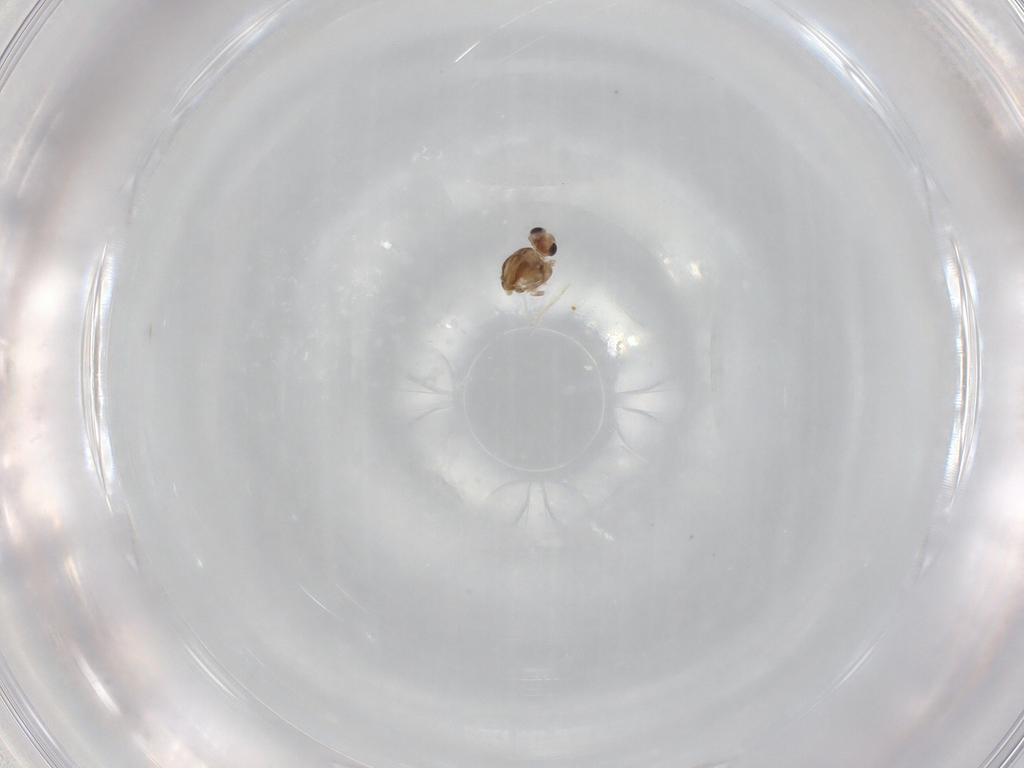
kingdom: Animalia
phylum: Arthropoda
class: Insecta
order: Diptera
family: Chironomidae
